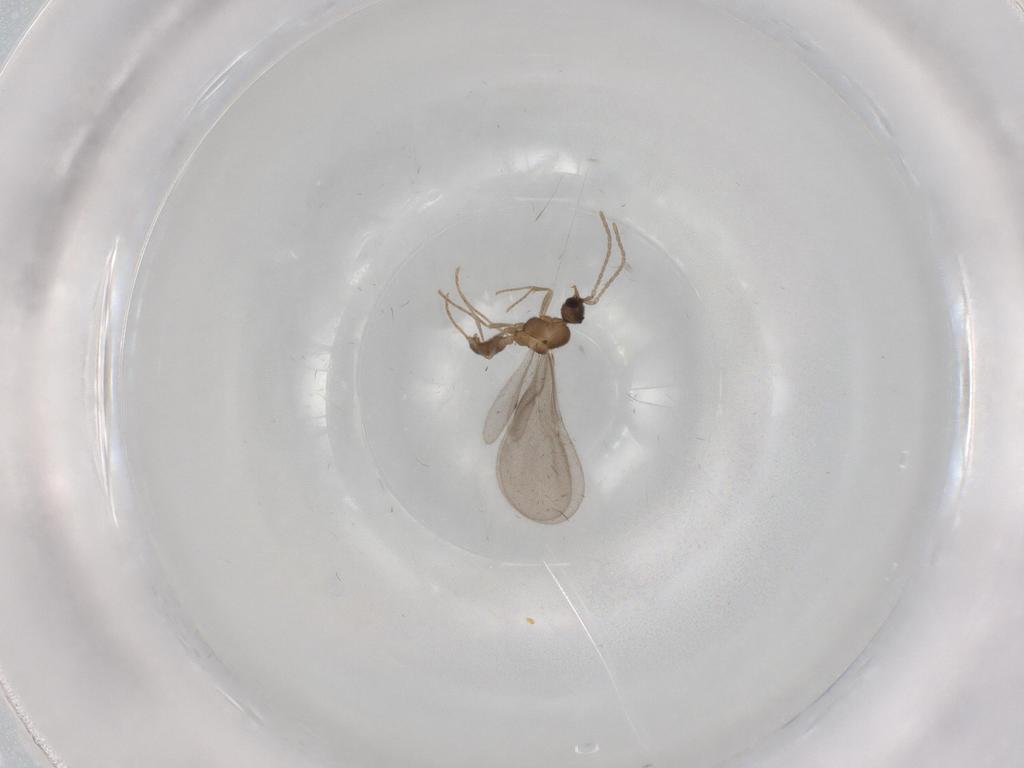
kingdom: Animalia
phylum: Arthropoda
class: Insecta
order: Hymenoptera
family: Formicidae
